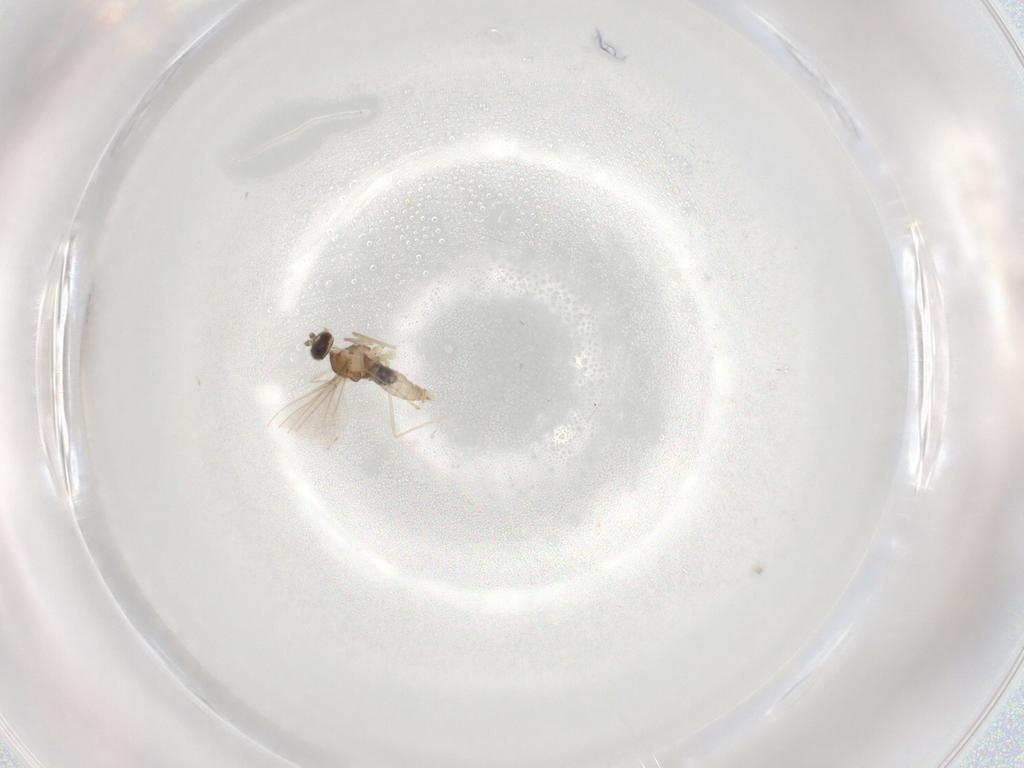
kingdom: Animalia
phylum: Arthropoda
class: Insecta
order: Diptera
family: Cecidomyiidae
